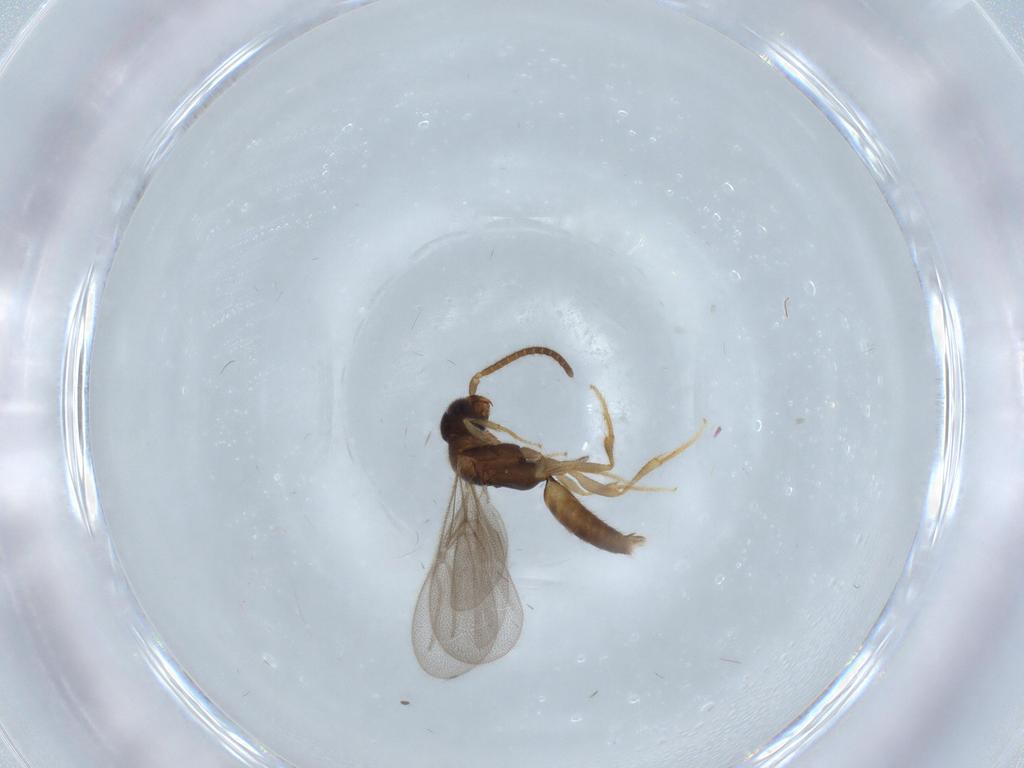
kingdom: Animalia
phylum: Arthropoda
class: Insecta
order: Hymenoptera
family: Bethylidae
